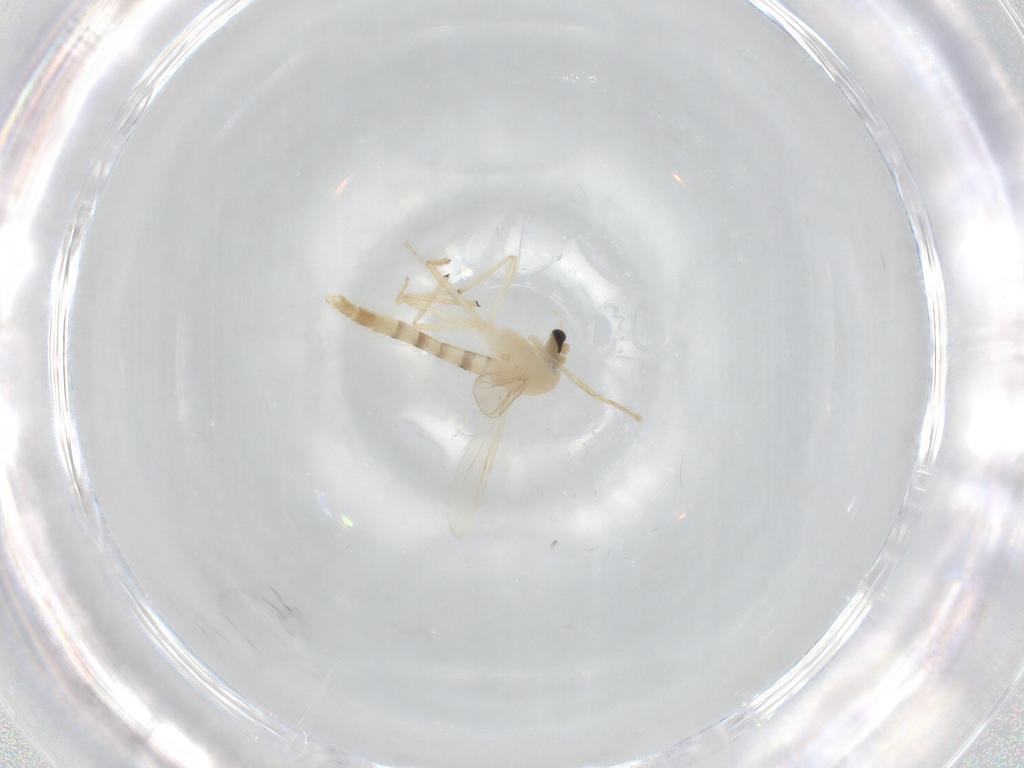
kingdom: Animalia
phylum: Arthropoda
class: Insecta
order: Diptera
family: Chironomidae
